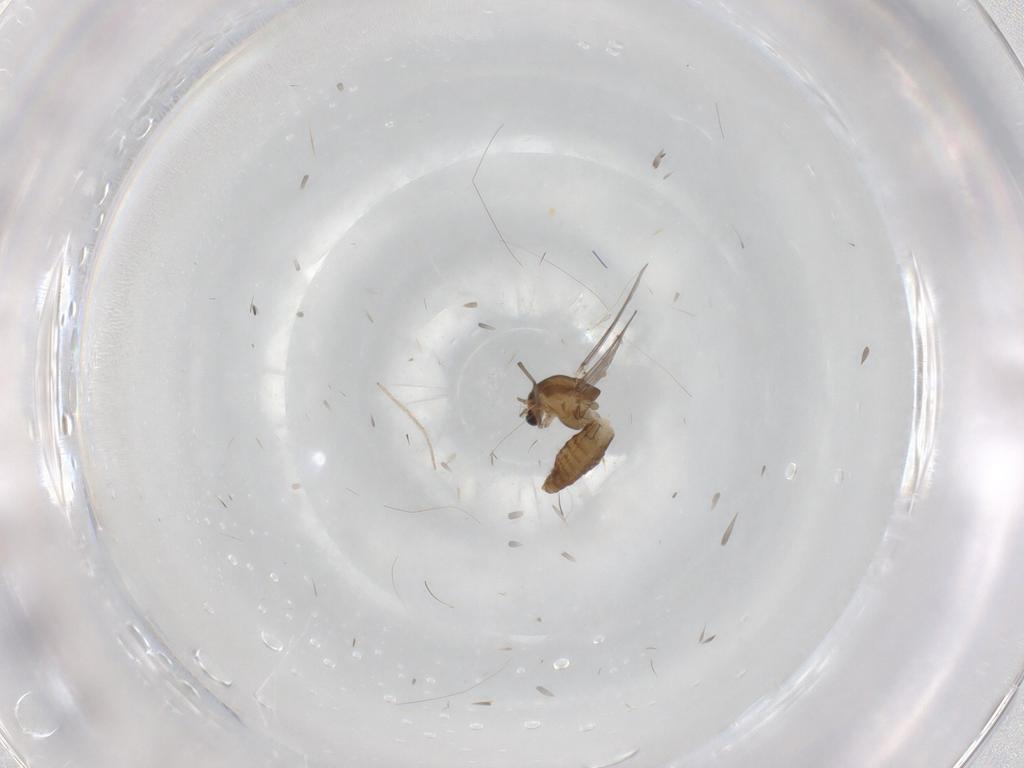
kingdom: Animalia
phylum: Arthropoda
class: Insecta
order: Diptera
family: Chironomidae
